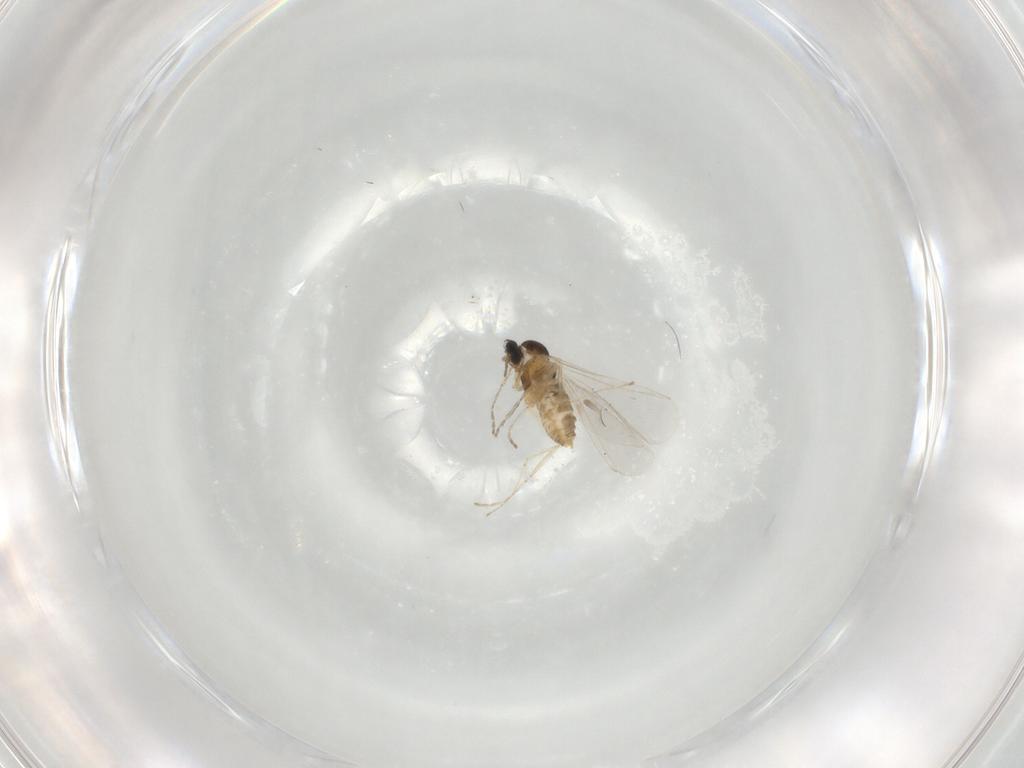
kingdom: Animalia
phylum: Arthropoda
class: Insecta
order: Diptera
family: Cecidomyiidae
